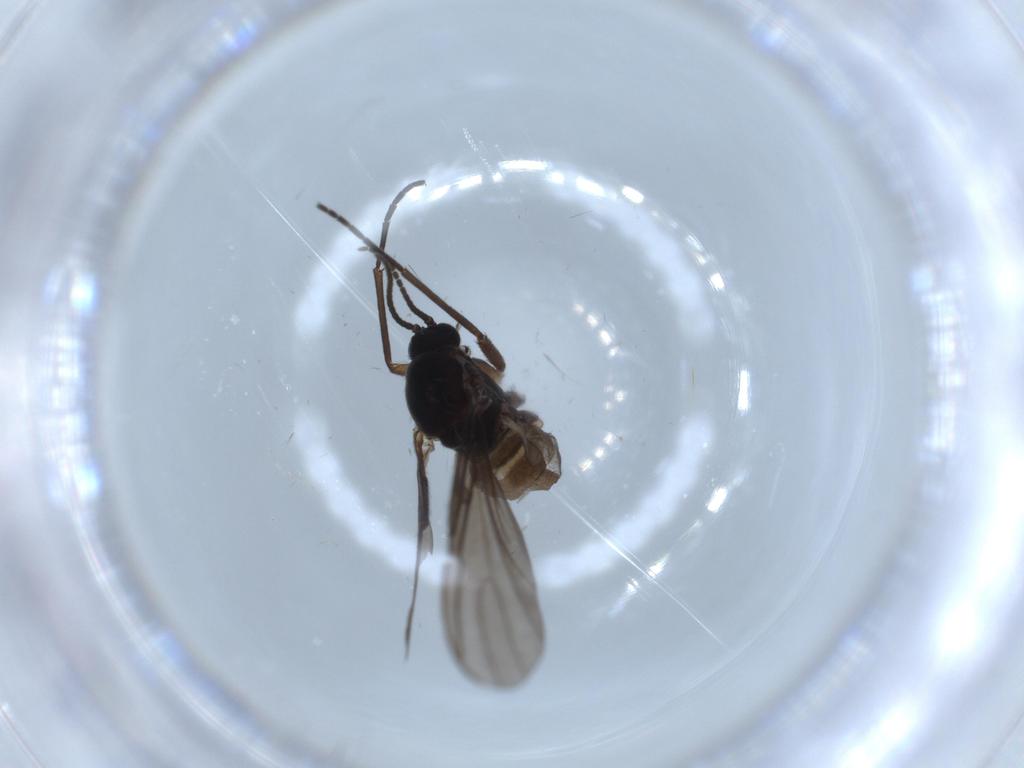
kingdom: Animalia
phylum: Arthropoda
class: Insecta
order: Diptera
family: Sciaridae
